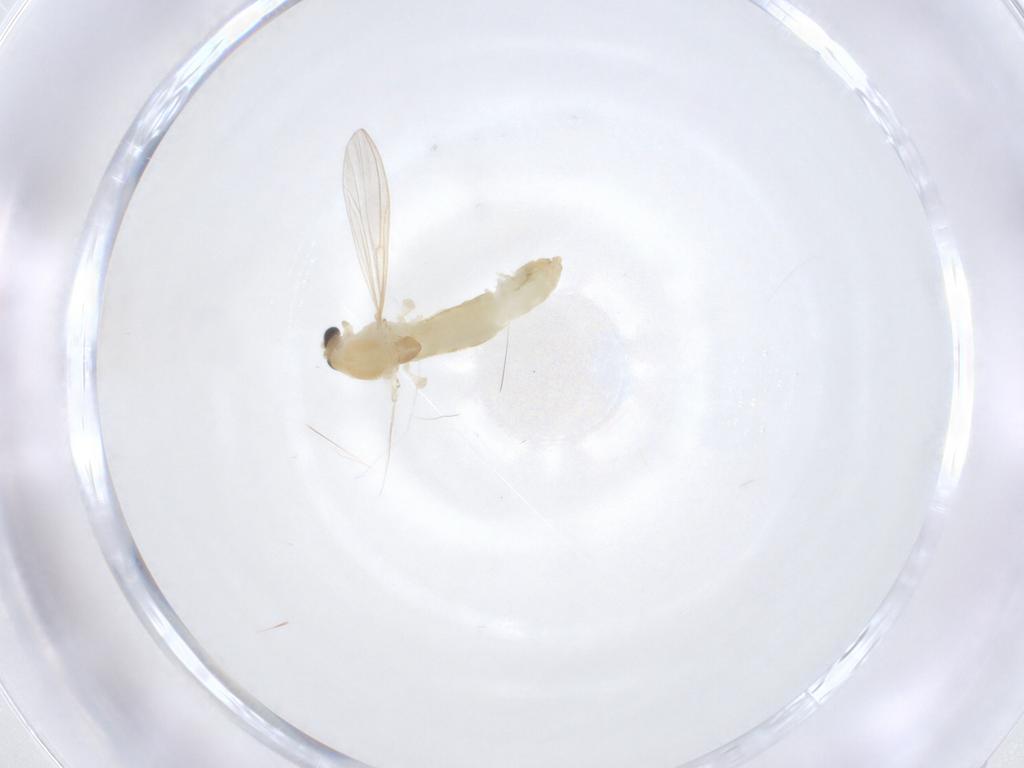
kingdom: Animalia
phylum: Arthropoda
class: Insecta
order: Diptera
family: Chironomidae
